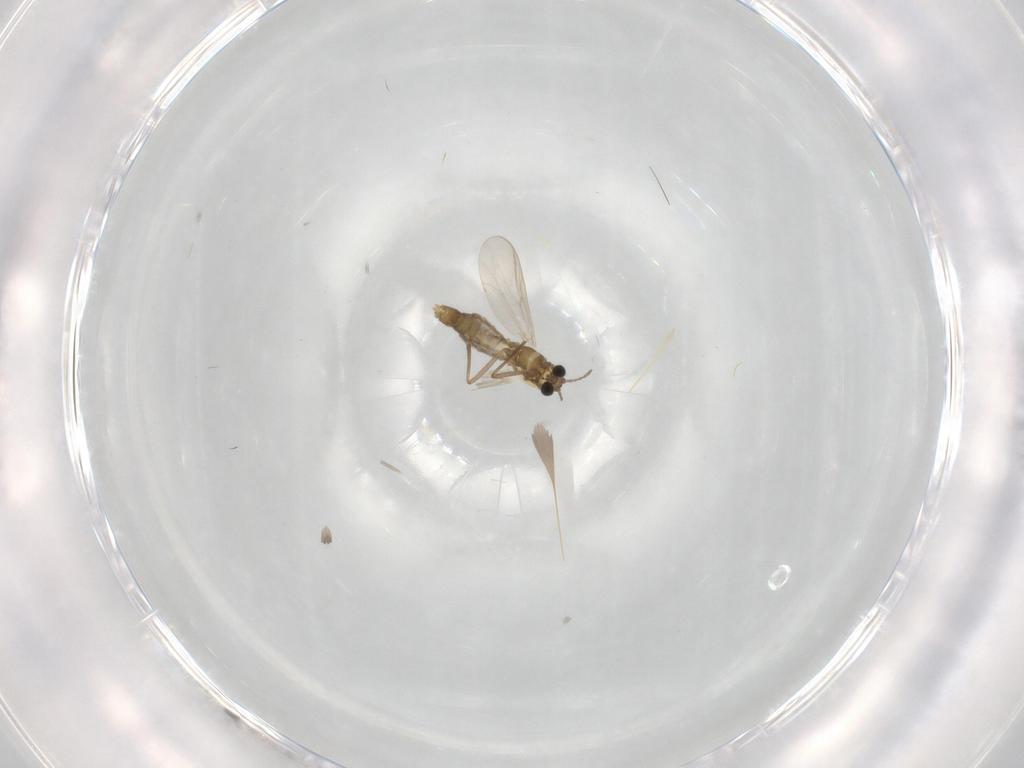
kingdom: Animalia
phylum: Arthropoda
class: Insecta
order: Diptera
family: Chironomidae
